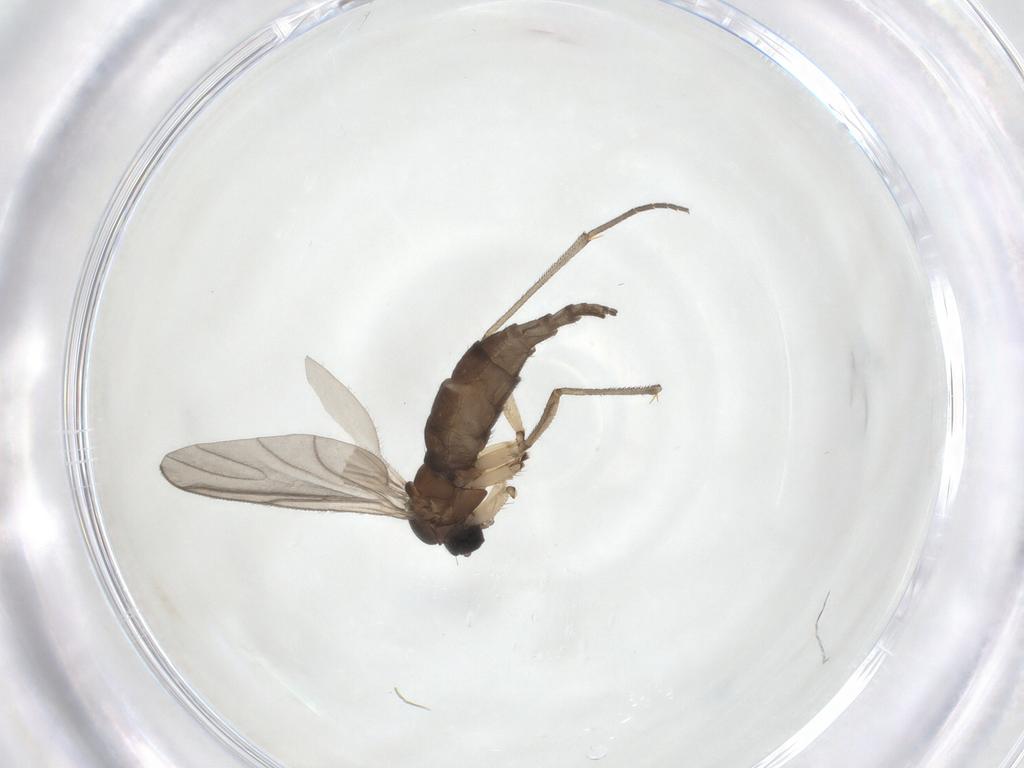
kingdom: Animalia
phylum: Arthropoda
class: Insecta
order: Diptera
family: Sciaridae
